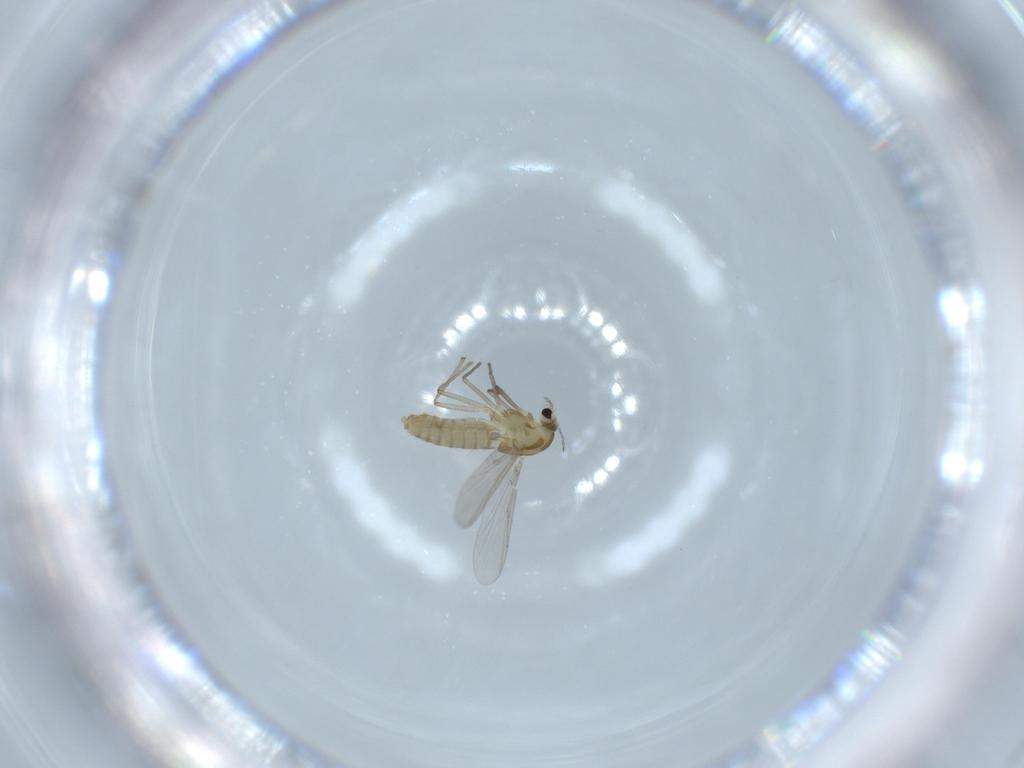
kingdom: Animalia
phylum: Arthropoda
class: Insecta
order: Diptera
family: Chironomidae
